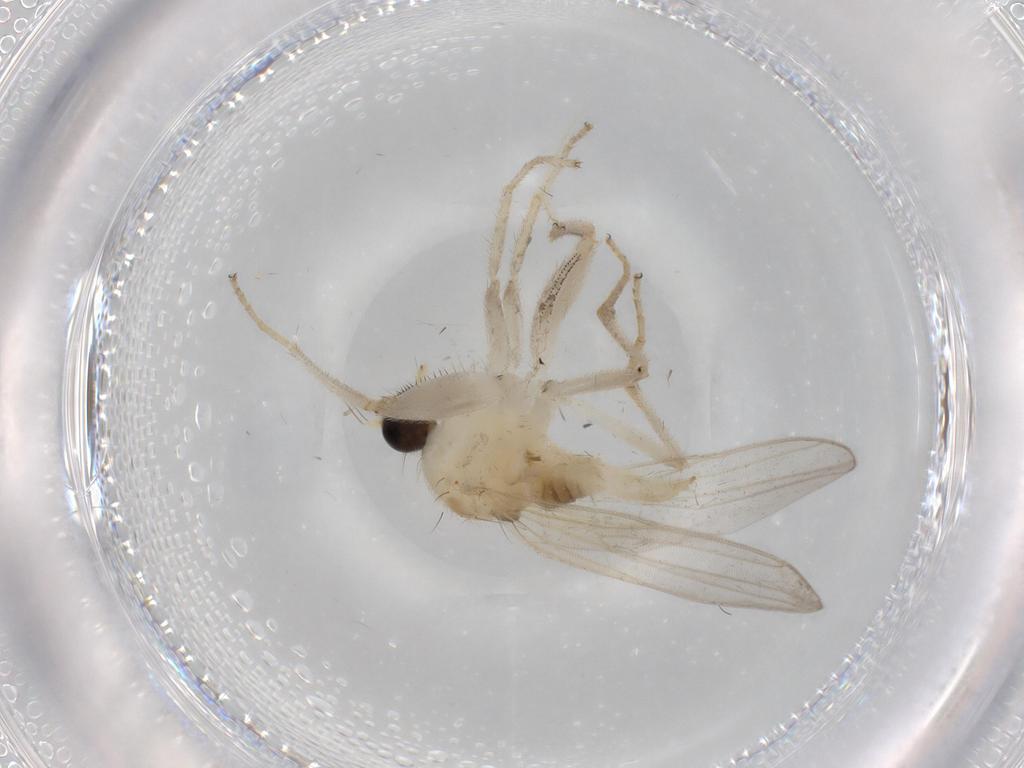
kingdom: Animalia
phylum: Arthropoda
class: Insecta
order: Diptera
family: Hybotidae
